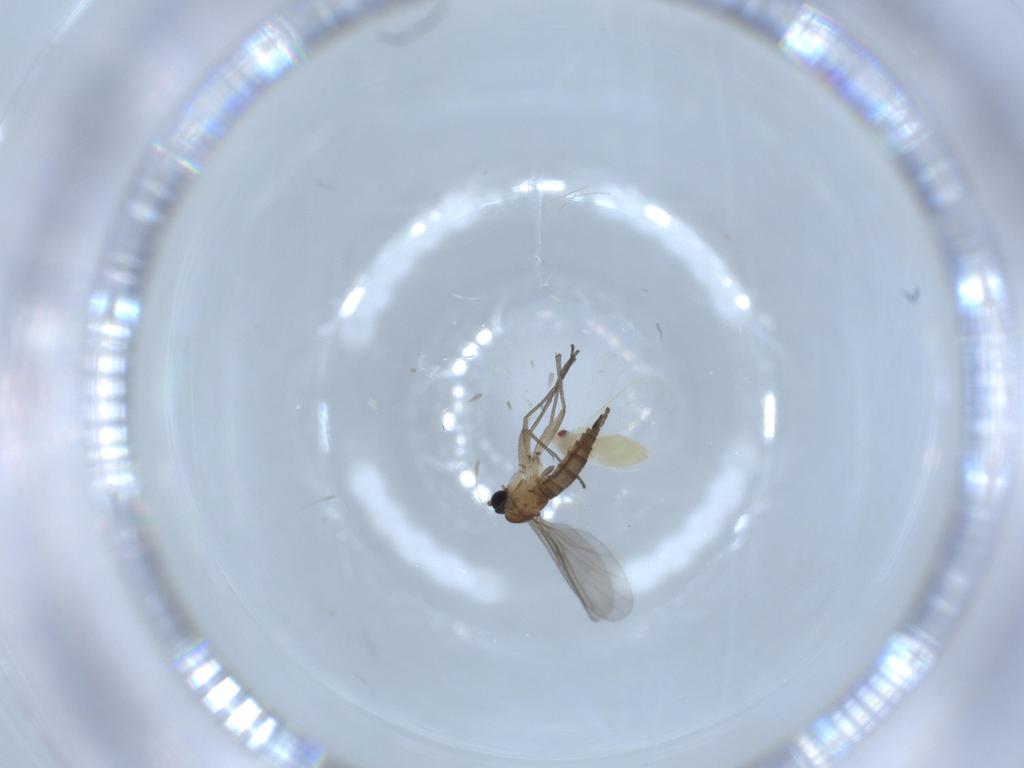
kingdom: Animalia
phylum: Arthropoda
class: Insecta
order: Diptera
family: Sciaridae
